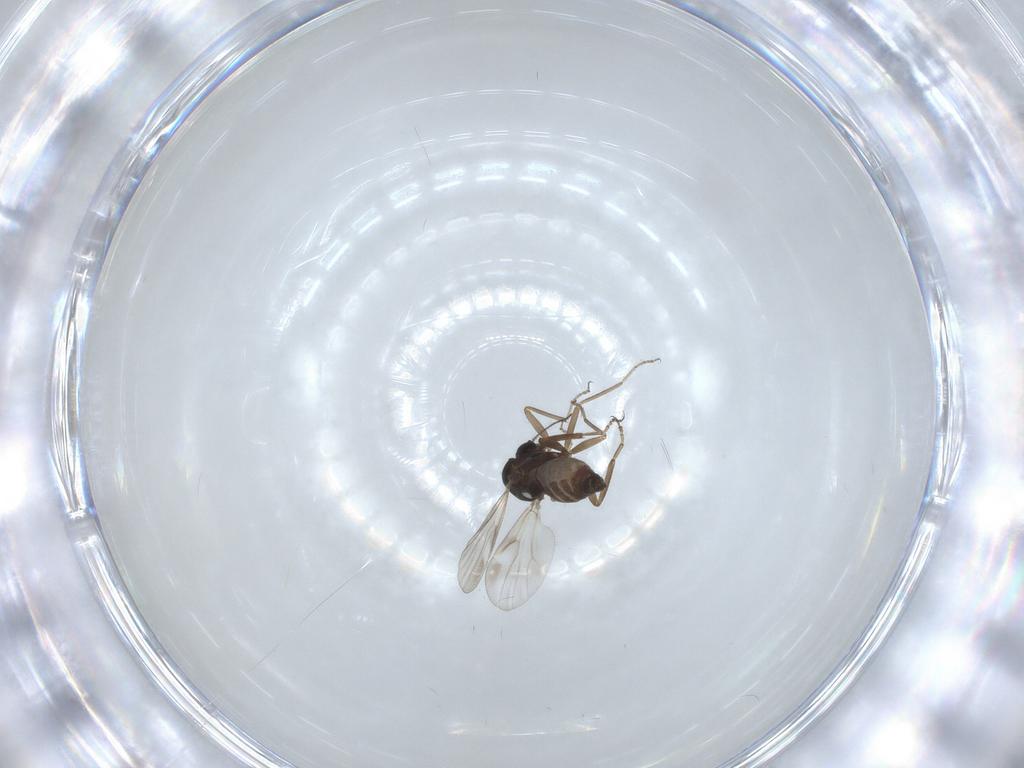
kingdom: Animalia
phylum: Arthropoda
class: Insecta
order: Diptera
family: Ceratopogonidae
